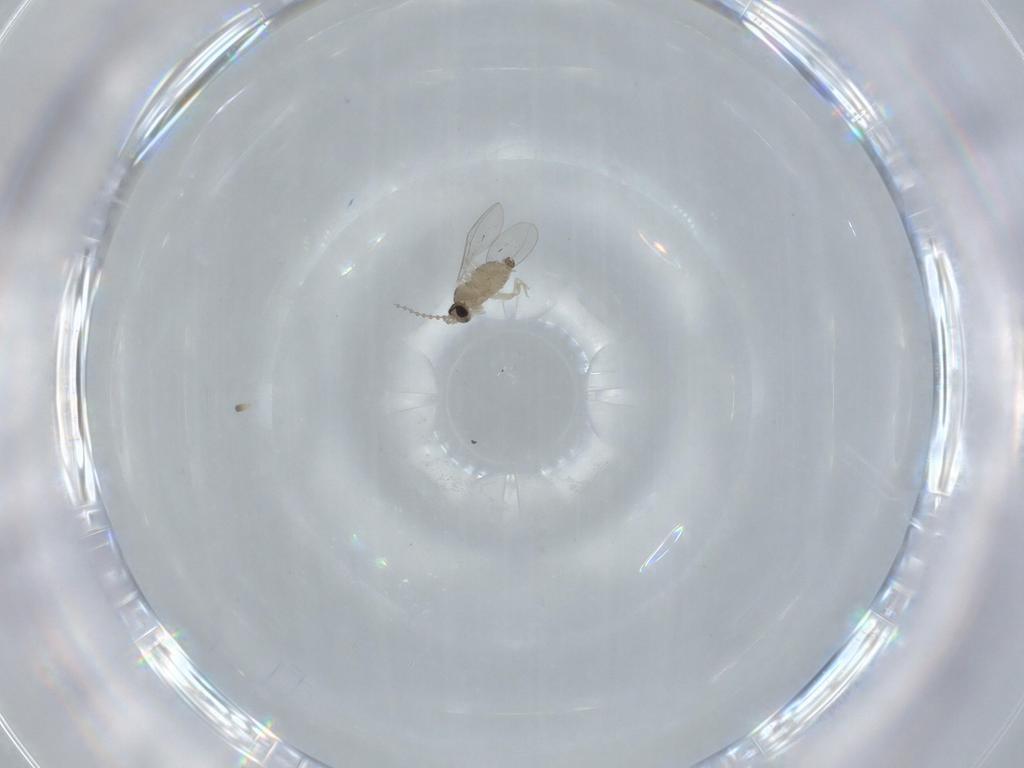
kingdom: Animalia
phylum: Arthropoda
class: Insecta
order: Diptera
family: Cecidomyiidae
